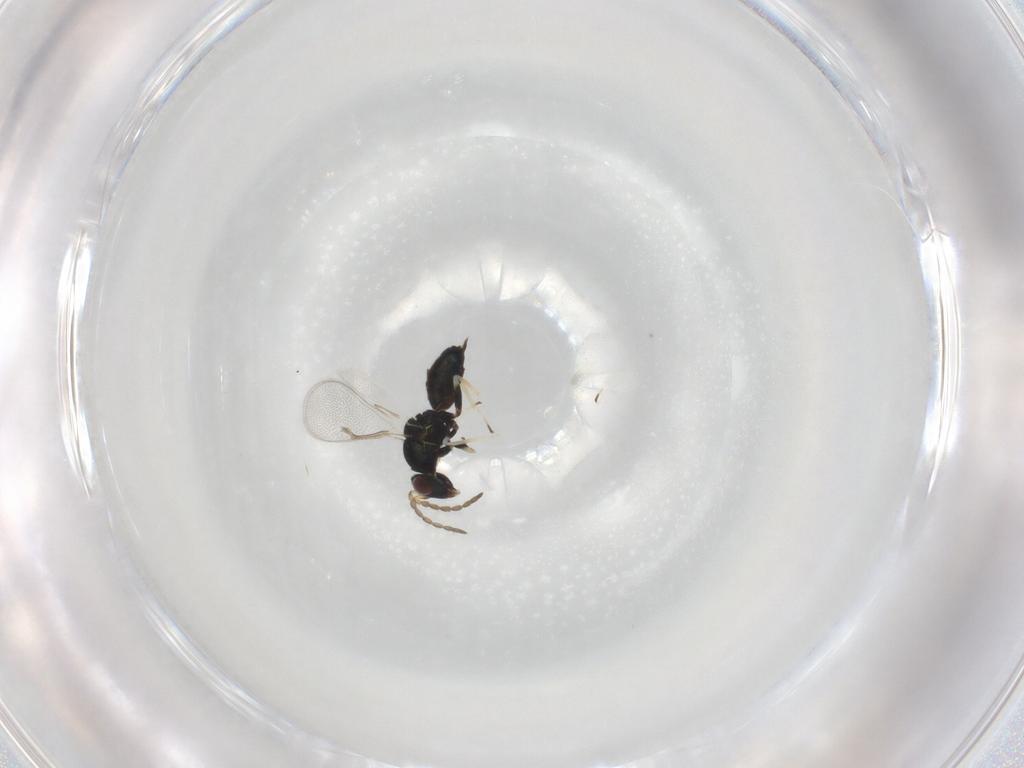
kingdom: Animalia
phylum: Arthropoda
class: Insecta
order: Hymenoptera
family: Eulophidae
